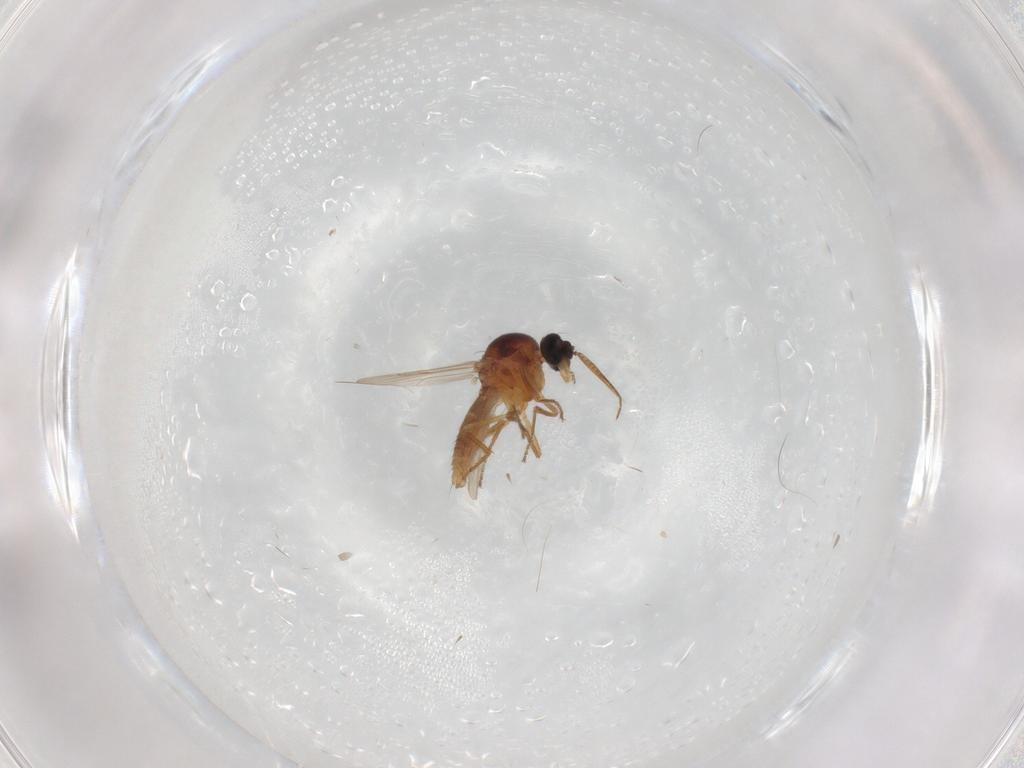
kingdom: Animalia
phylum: Arthropoda
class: Insecta
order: Diptera
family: Ceratopogonidae
